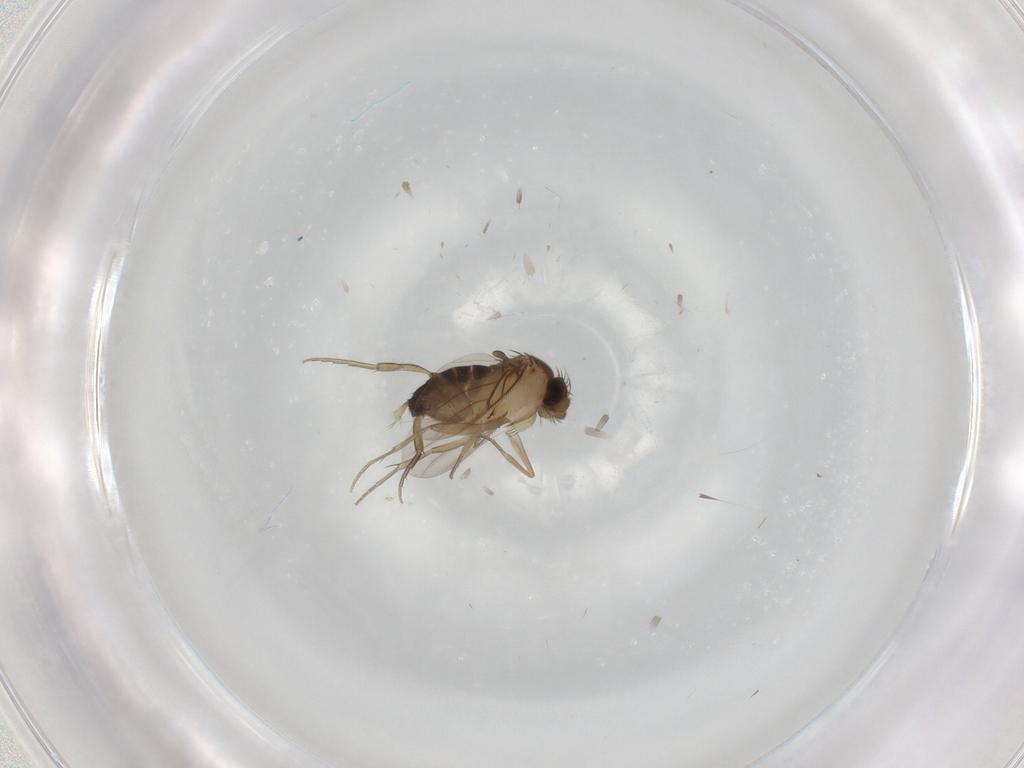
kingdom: Animalia
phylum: Arthropoda
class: Insecta
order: Diptera
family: Phoridae
